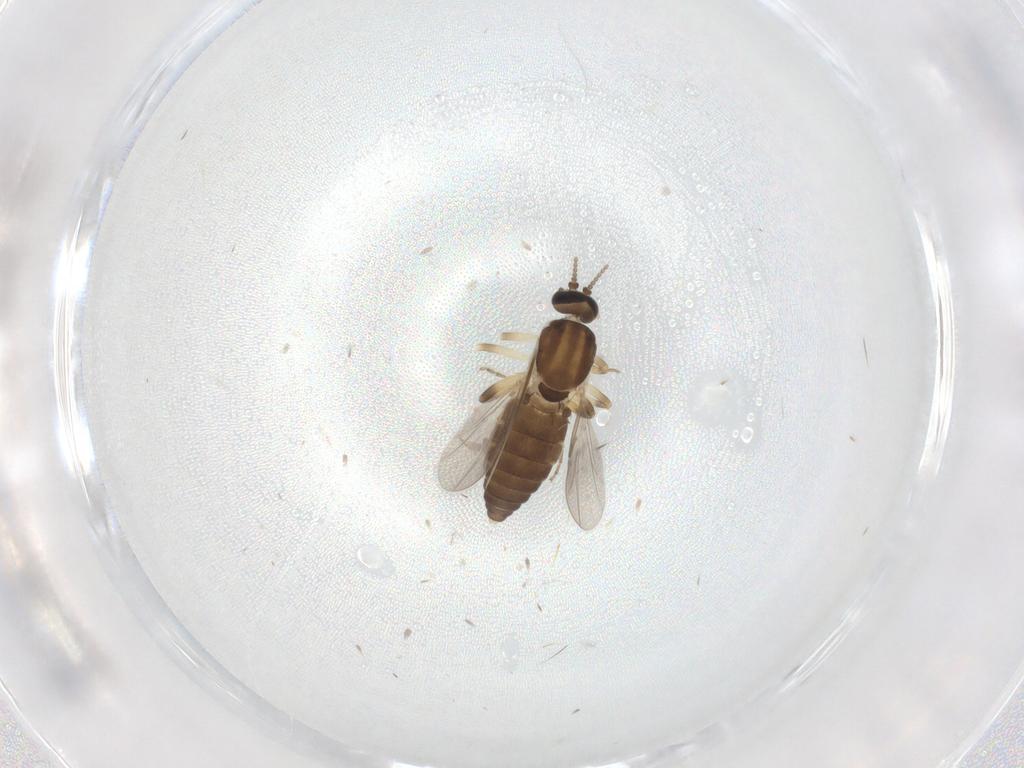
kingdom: Animalia
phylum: Arthropoda
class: Insecta
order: Diptera
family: Ceratopogonidae
